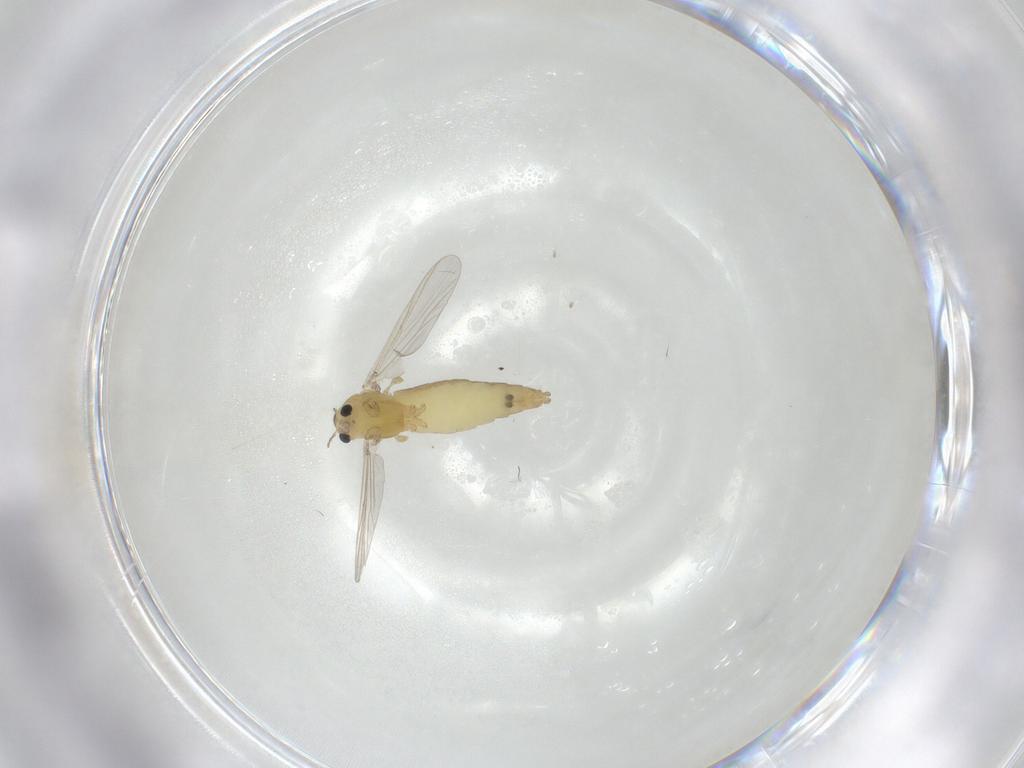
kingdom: Animalia
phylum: Arthropoda
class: Insecta
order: Diptera
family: Chironomidae
